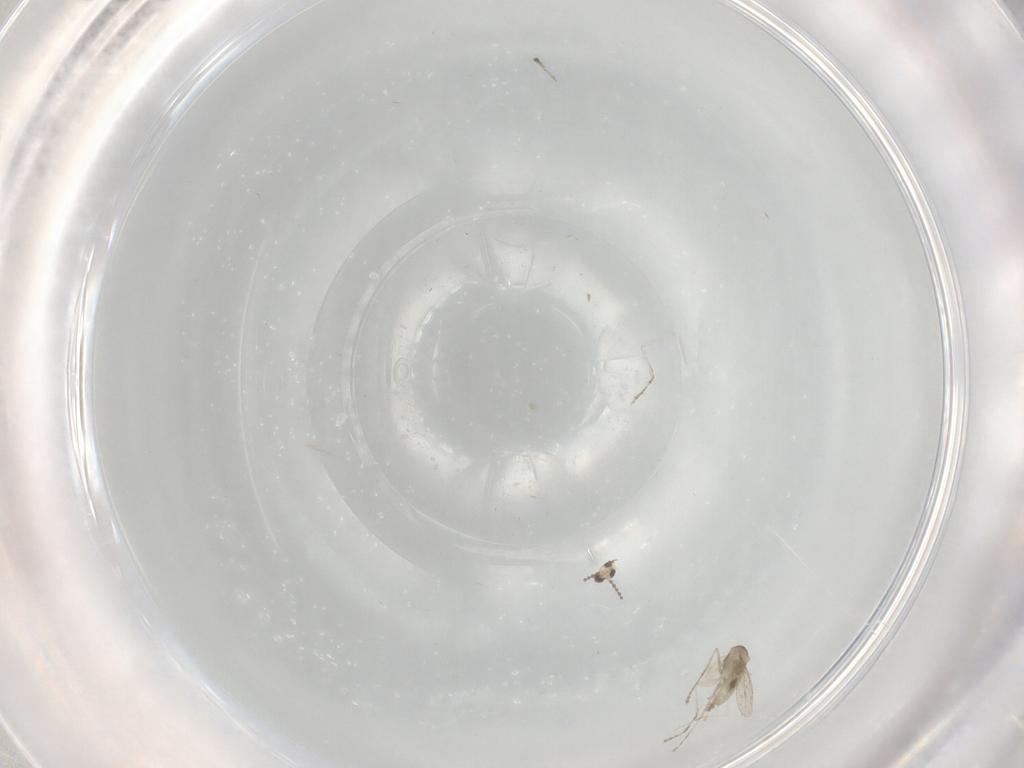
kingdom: Animalia
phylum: Arthropoda
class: Insecta
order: Diptera
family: Cecidomyiidae
